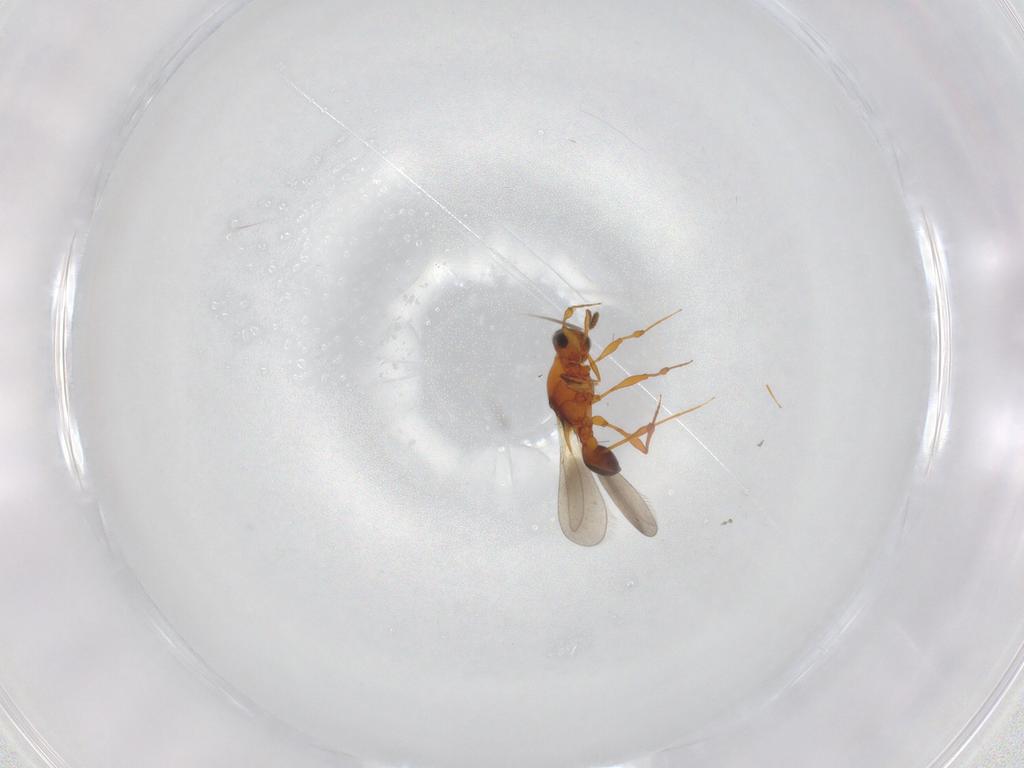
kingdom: Animalia
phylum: Arthropoda
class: Insecta
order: Hymenoptera
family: Platygastridae
